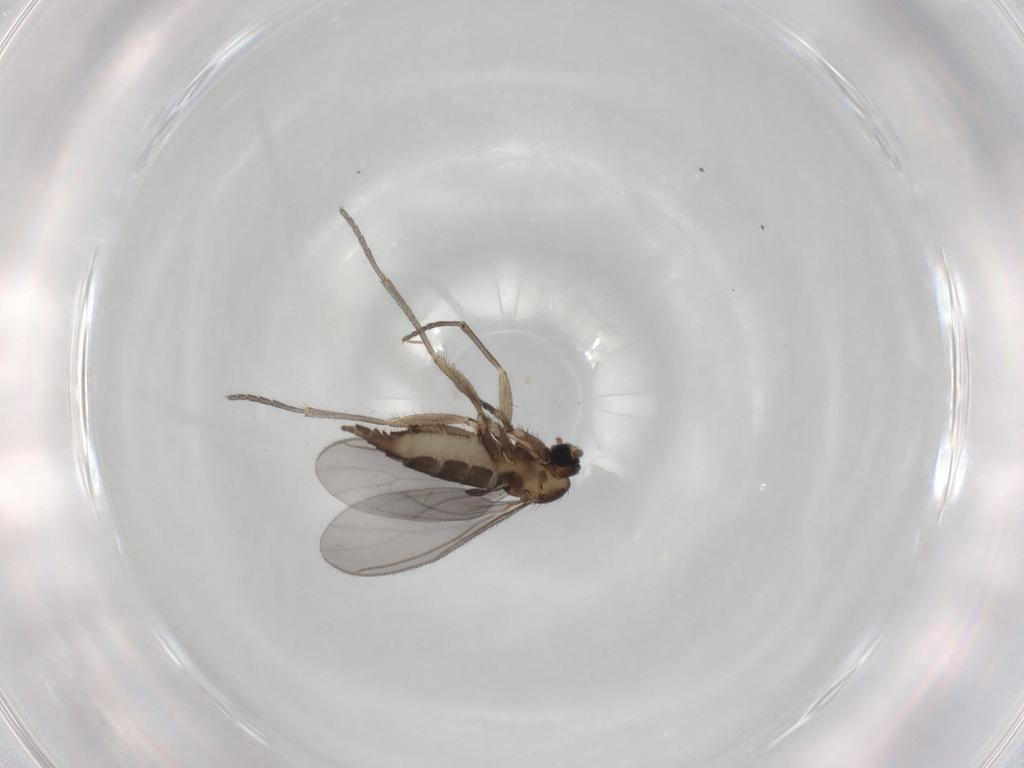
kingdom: Animalia
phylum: Arthropoda
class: Insecta
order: Diptera
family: Sciaridae
